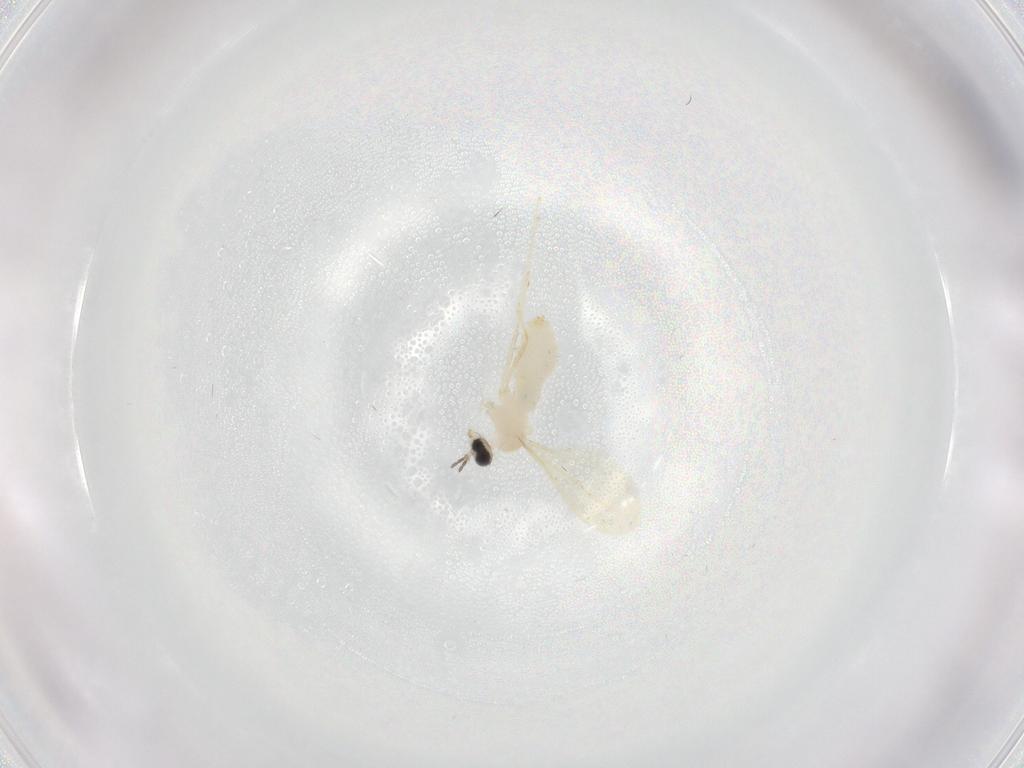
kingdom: Animalia
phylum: Arthropoda
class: Insecta
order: Diptera
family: Cecidomyiidae
